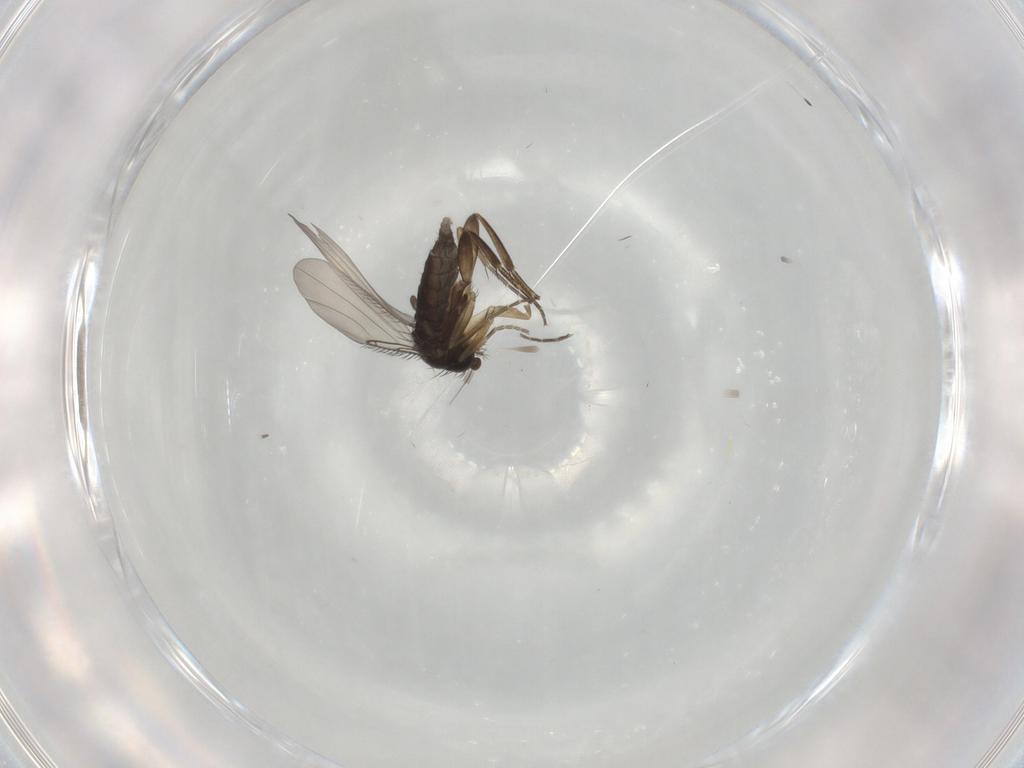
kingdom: Animalia
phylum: Arthropoda
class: Insecta
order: Diptera
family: Phoridae
